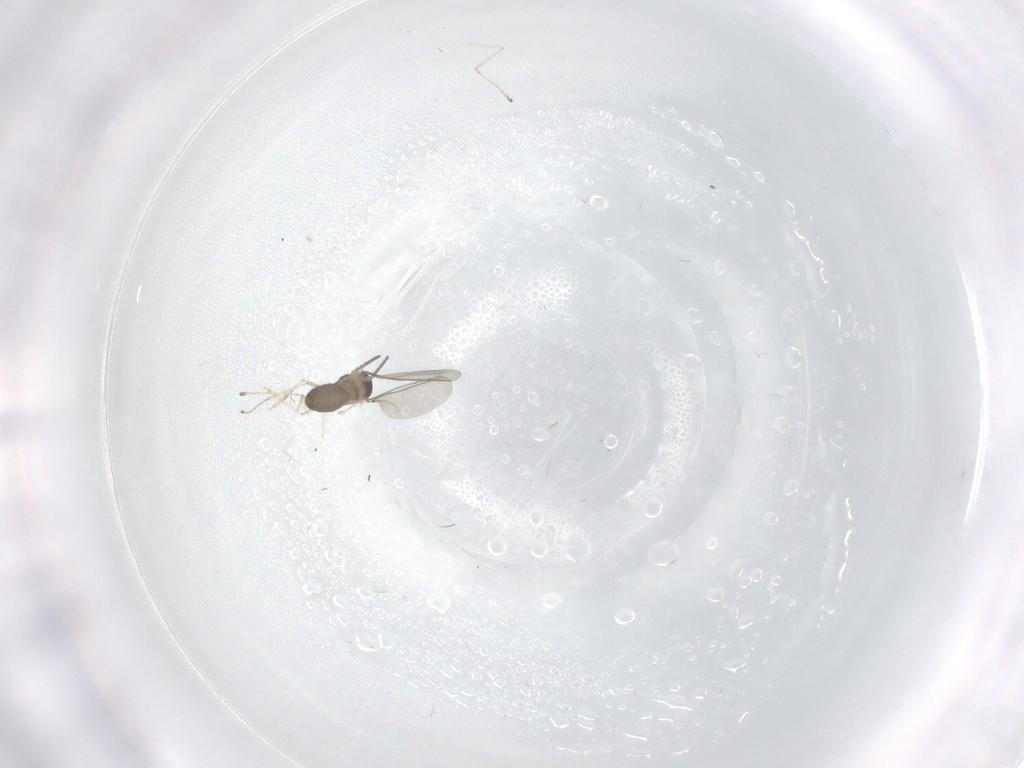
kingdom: Animalia
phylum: Arthropoda
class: Insecta
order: Diptera
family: Cecidomyiidae
